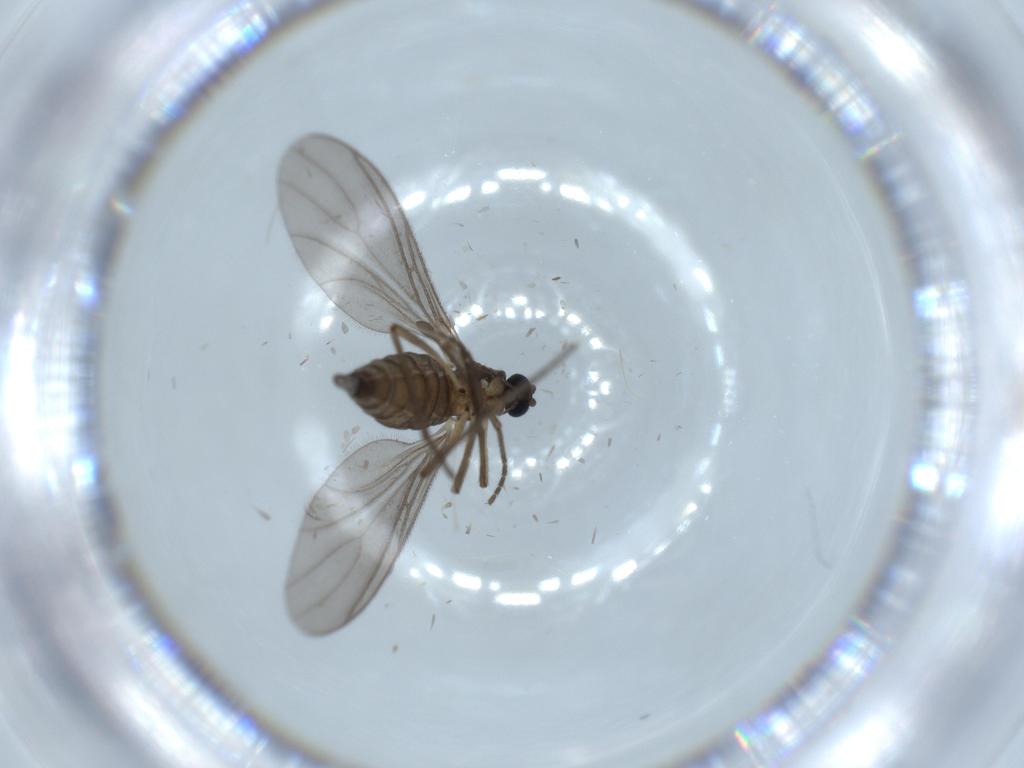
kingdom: Animalia
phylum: Arthropoda
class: Insecta
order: Diptera
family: Sciaridae
